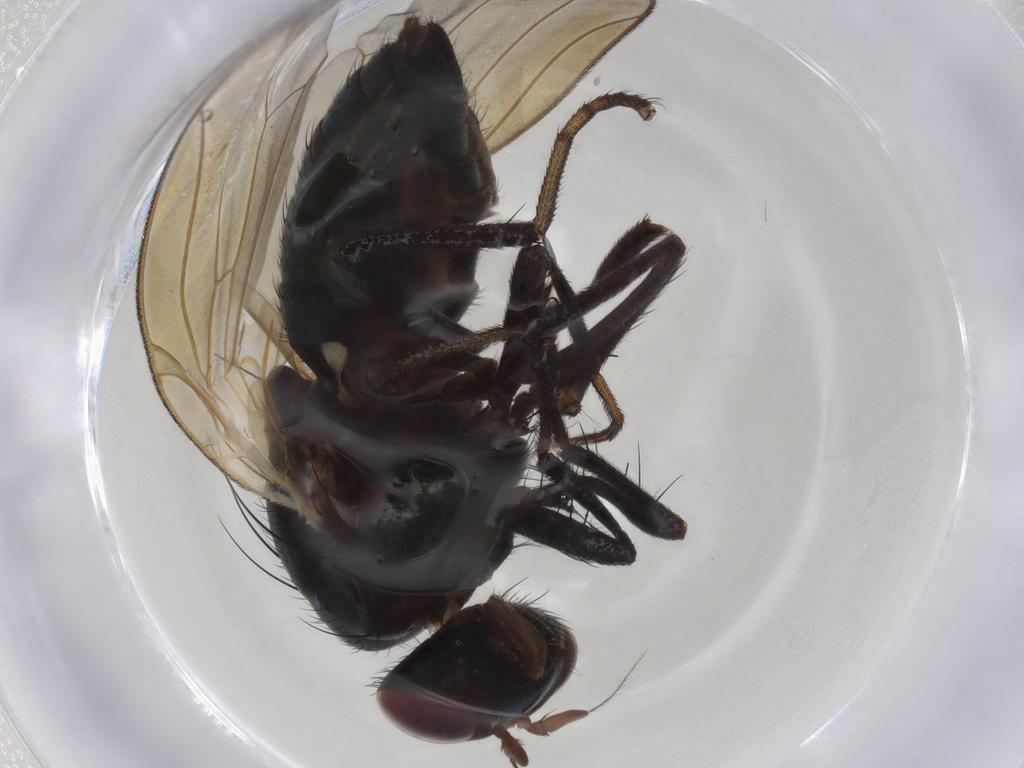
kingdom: Animalia
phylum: Arthropoda
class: Insecta
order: Diptera
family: Lauxaniidae
